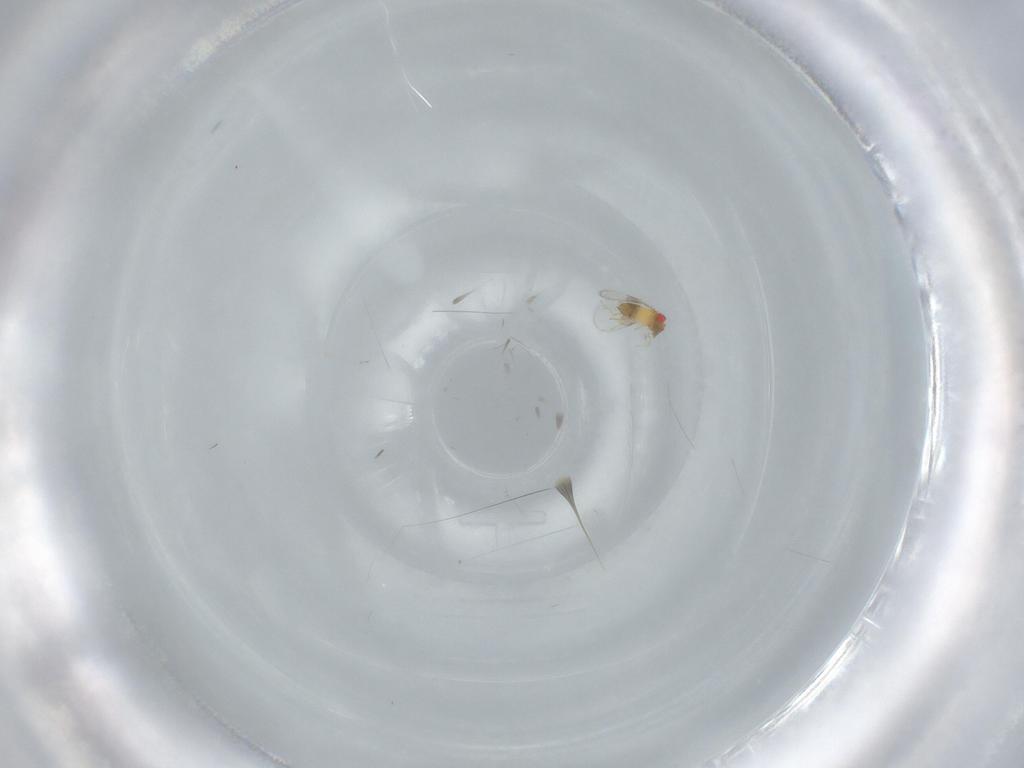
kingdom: Animalia
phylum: Arthropoda
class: Insecta
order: Hymenoptera
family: Trichogrammatidae
